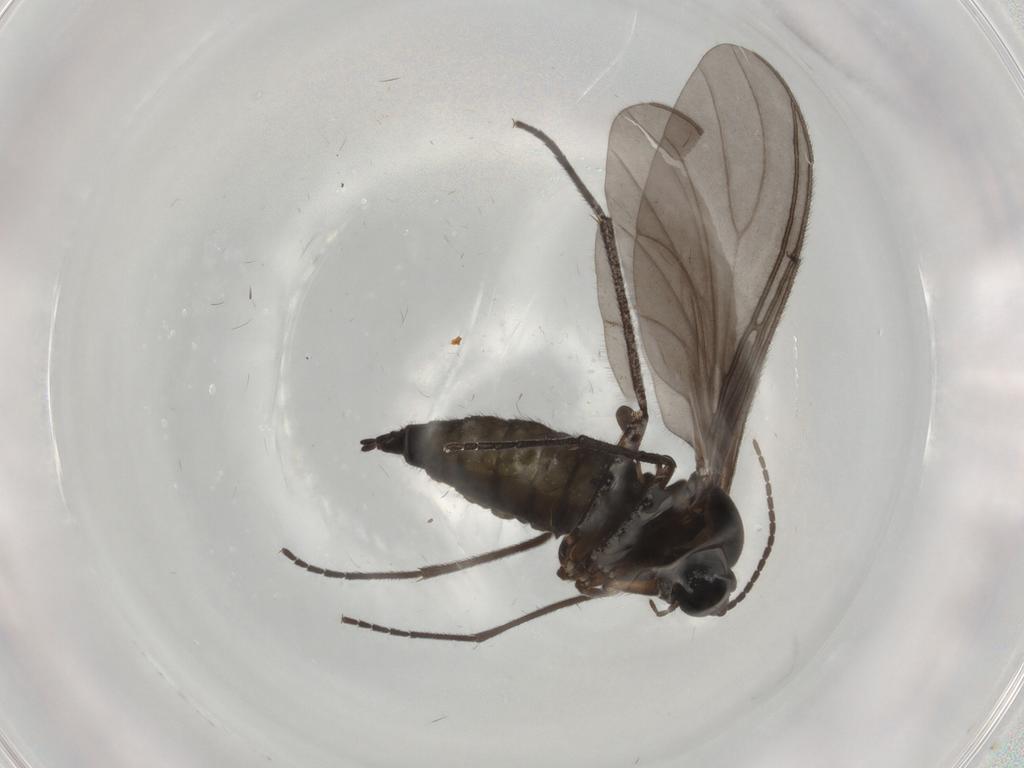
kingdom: Animalia
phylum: Arthropoda
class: Insecta
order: Diptera
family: Sciaridae
